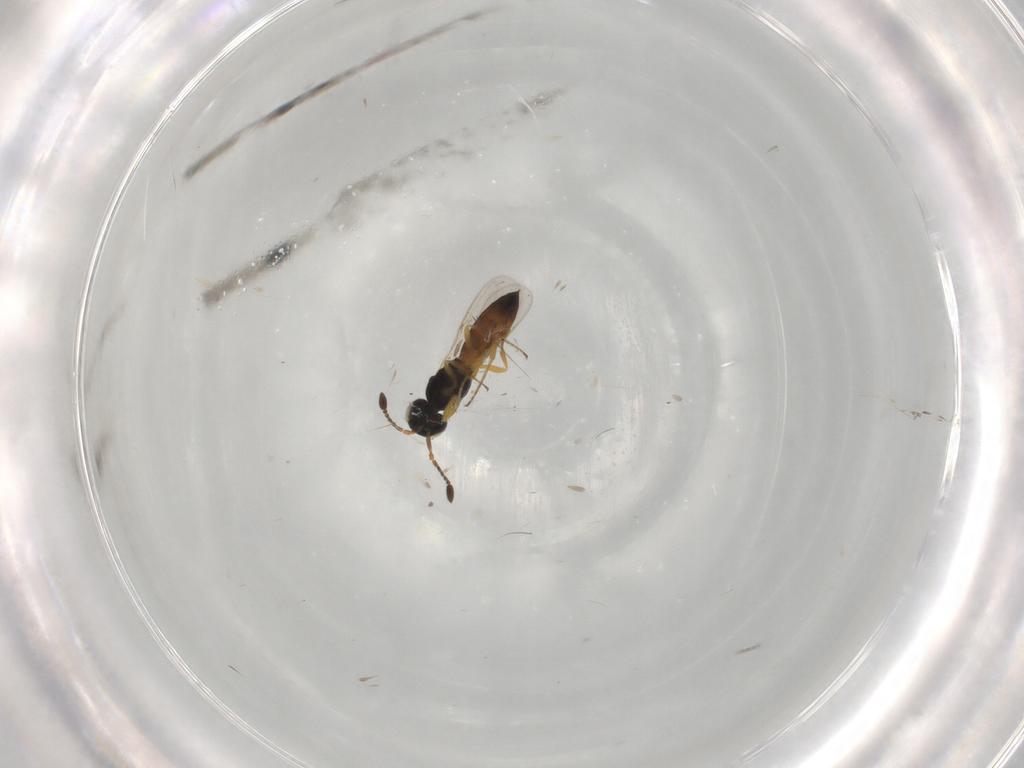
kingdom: Animalia
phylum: Arthropoda
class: Insecta
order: Hymenoptera
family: Scelionidae
